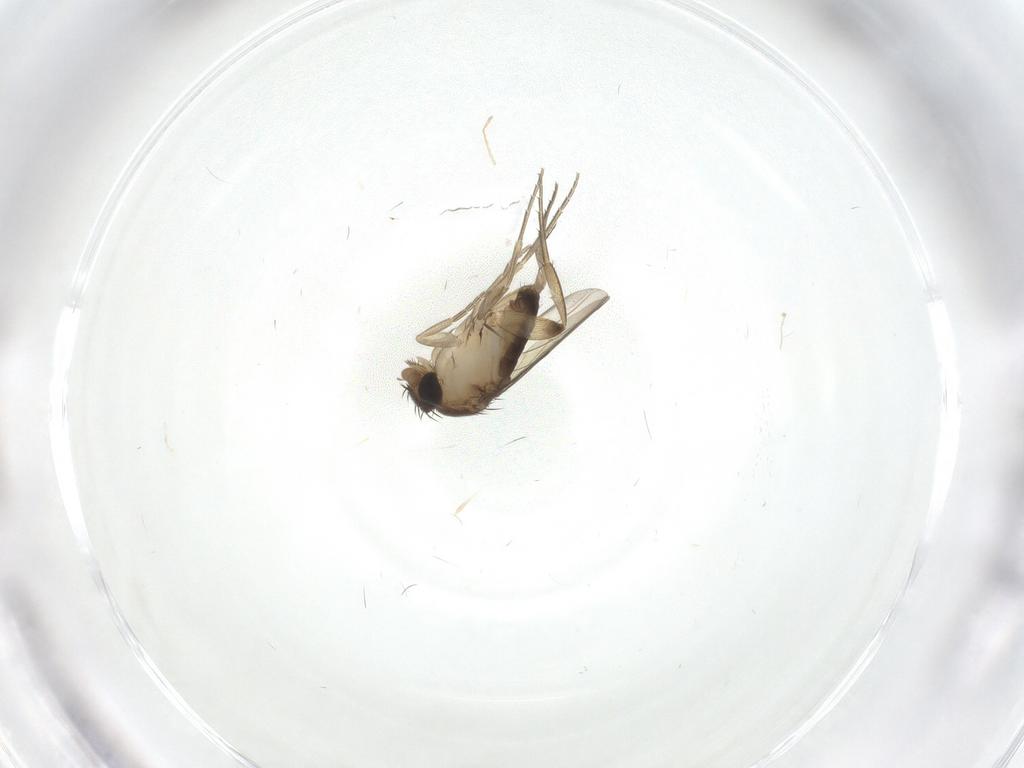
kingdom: Animalia
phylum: Arthropoda
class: Insecta
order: Diptera
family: Phoridae
